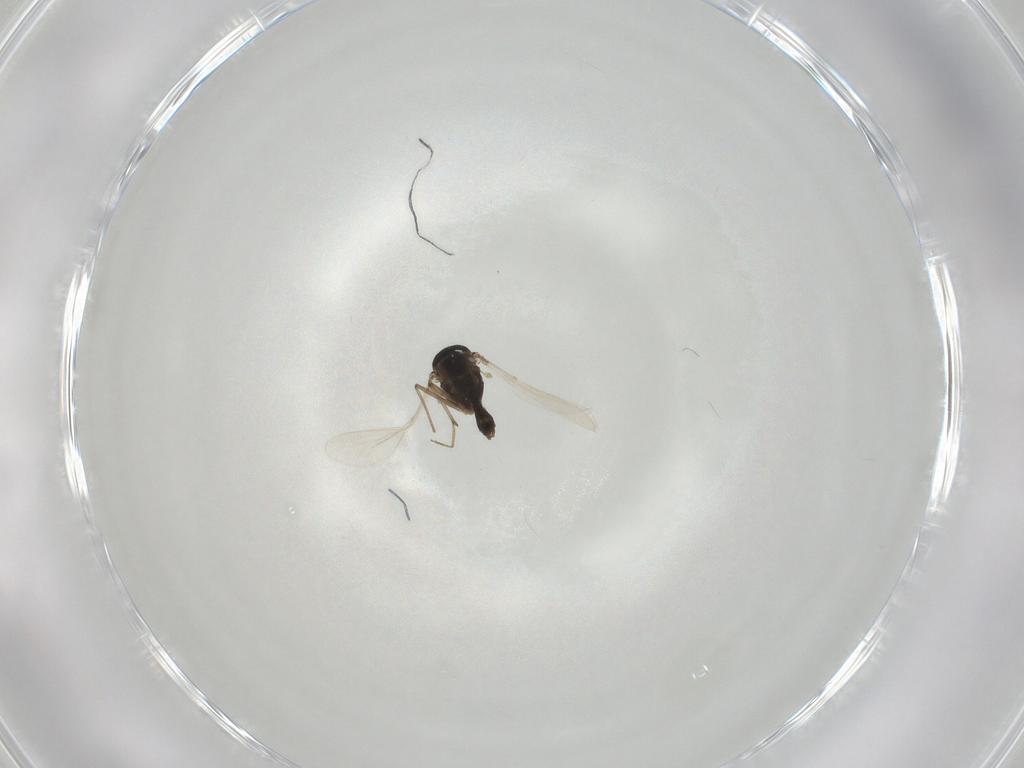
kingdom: Animalia
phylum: Arthropoda
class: Insecta
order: Diptera
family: Chironomidae
